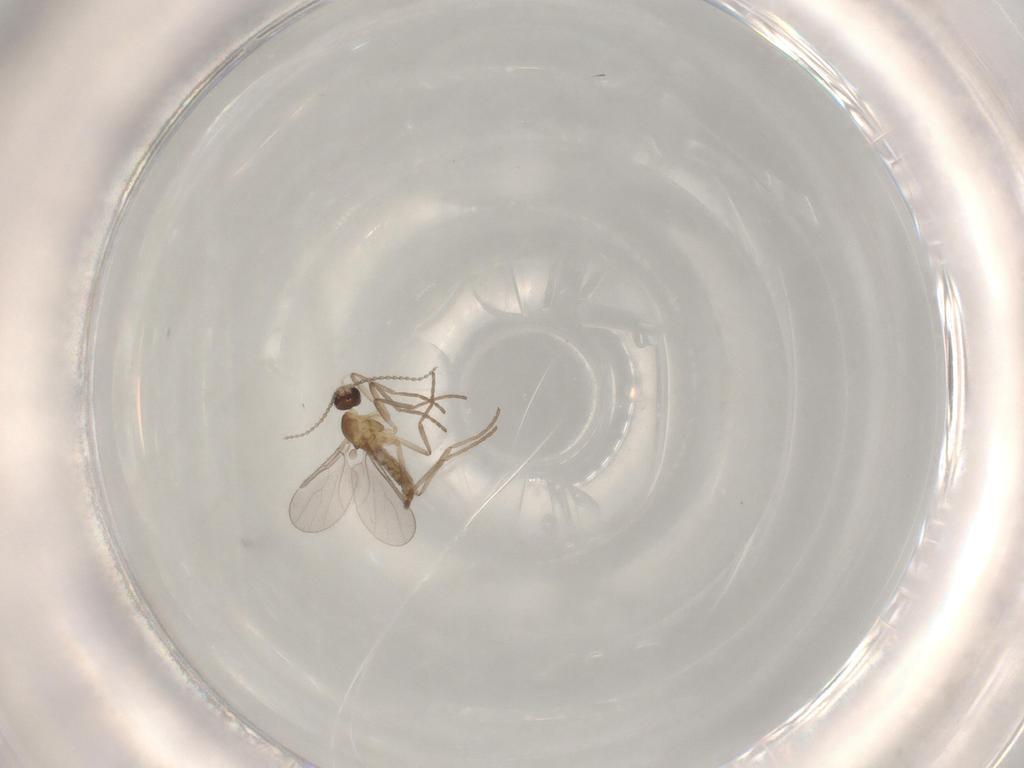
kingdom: Animalia
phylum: Arthropoda
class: Insecta
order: Diptera
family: Cecidomyiidae
